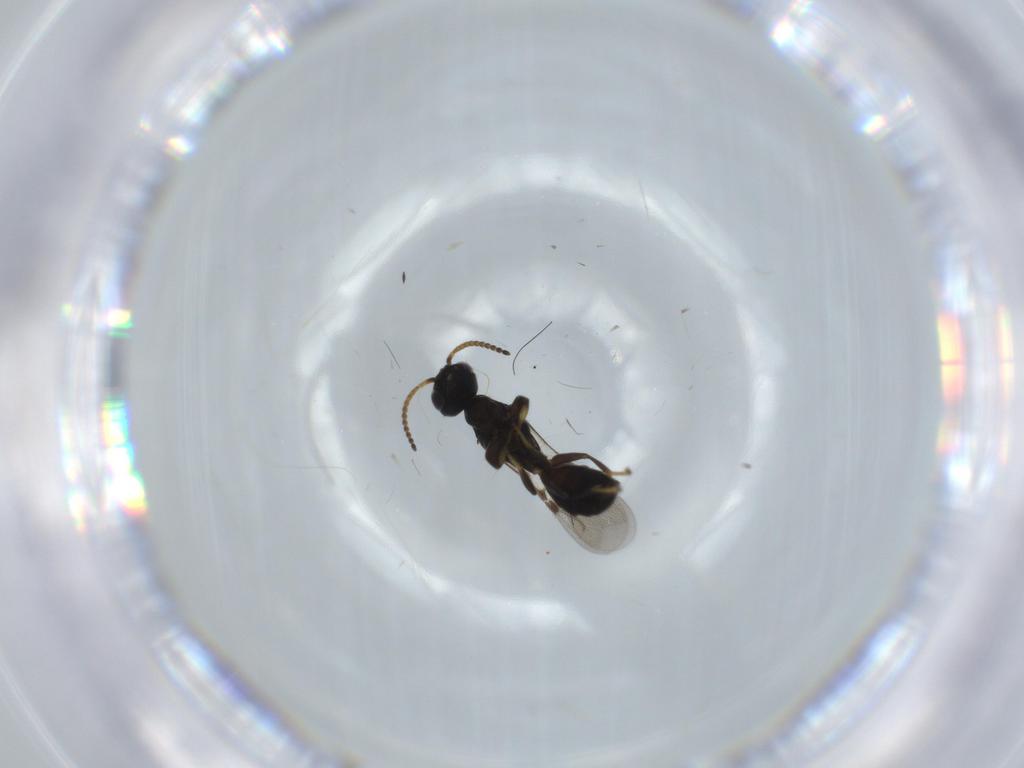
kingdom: Animalia
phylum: Arthropoda
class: Insecta
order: Hymenoptera
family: Bethylidae
